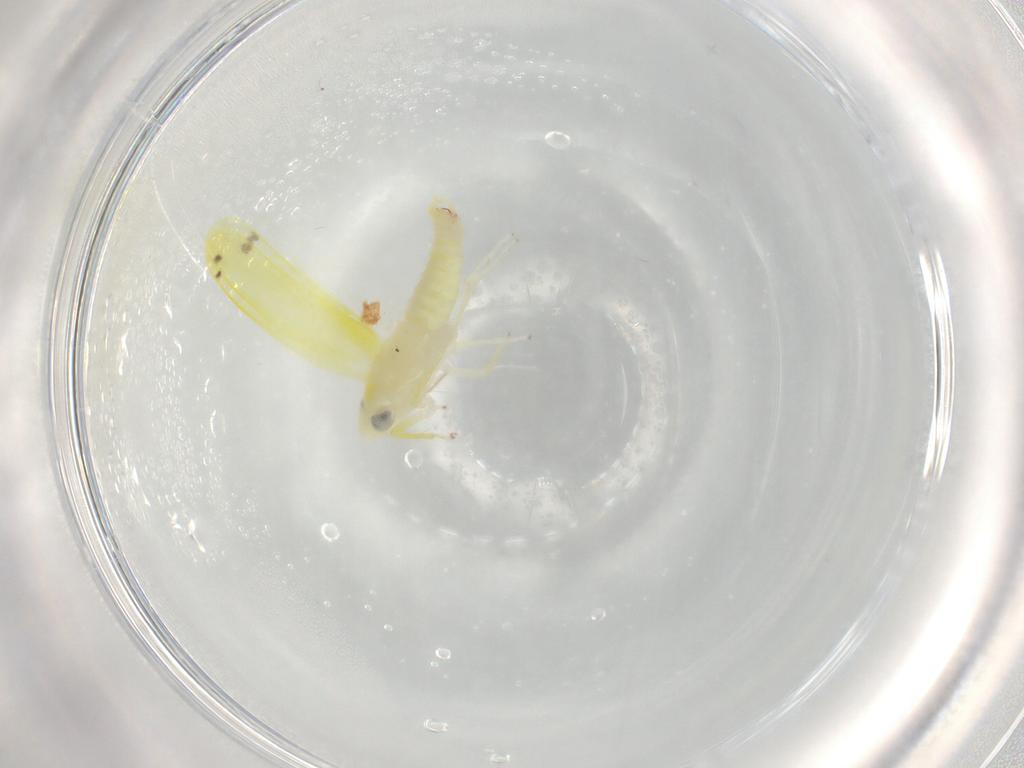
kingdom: Animalia
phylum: Arthropoda
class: Insecta
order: Hemiptera
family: Cicadellidae
